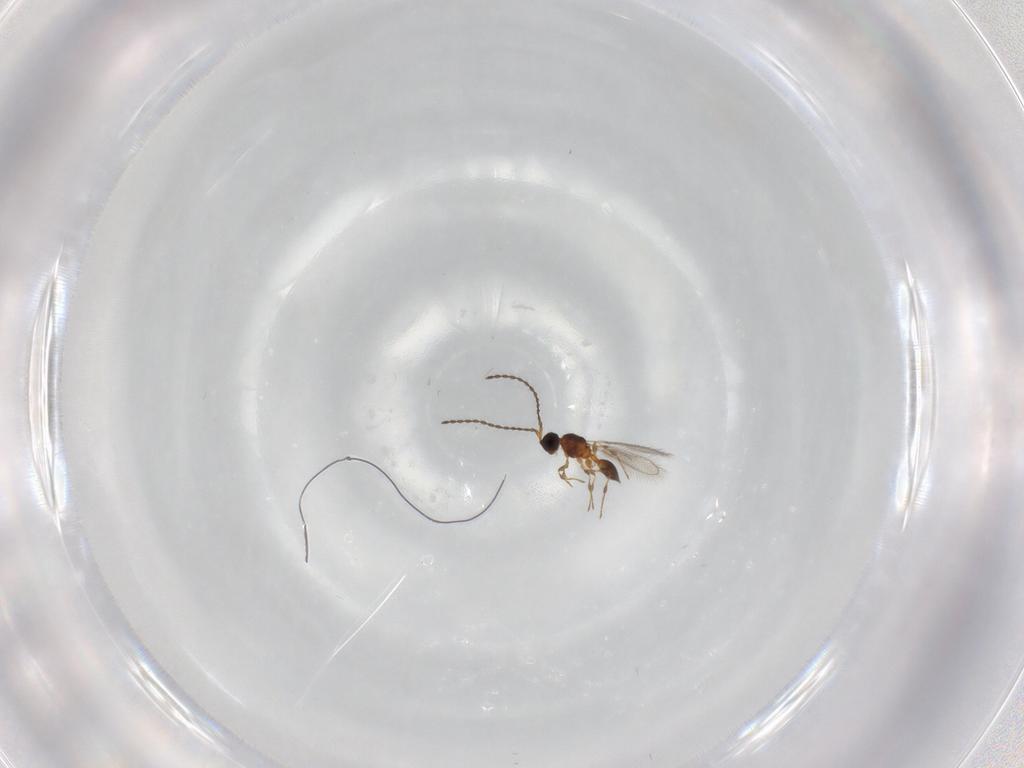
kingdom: Animalia
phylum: Arthropoda
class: Insecta
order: Hymenoptera
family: Diapriidae
